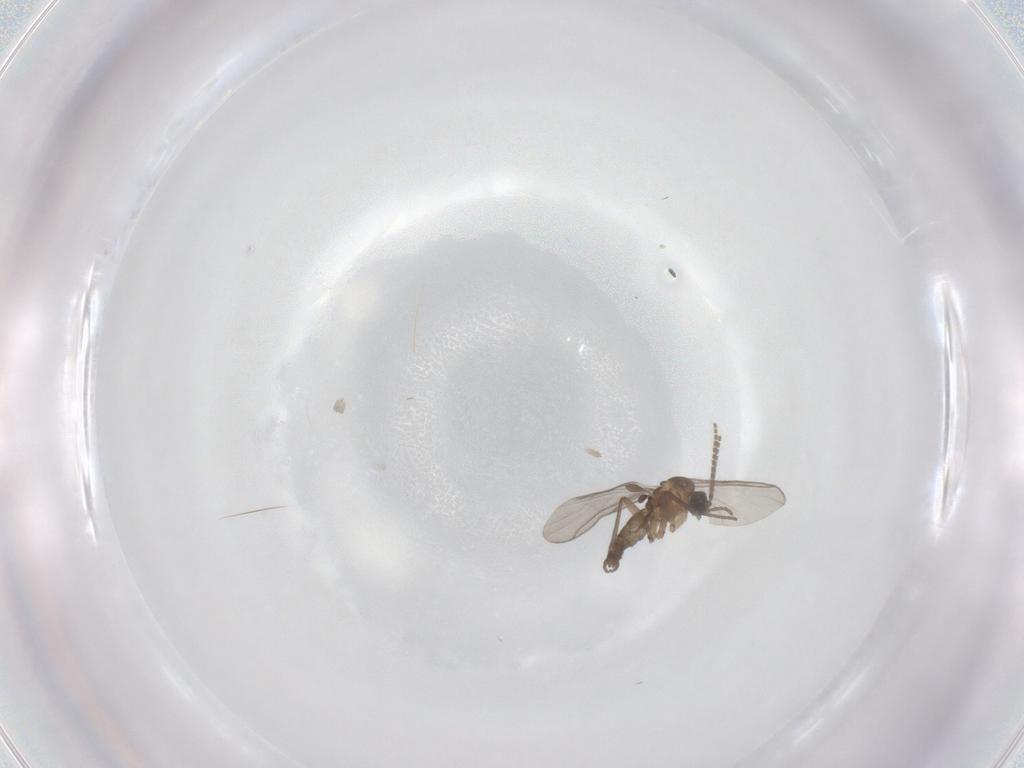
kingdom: Animalia
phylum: Arthropoda
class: Insecta
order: Diptera
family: Sciaridae
